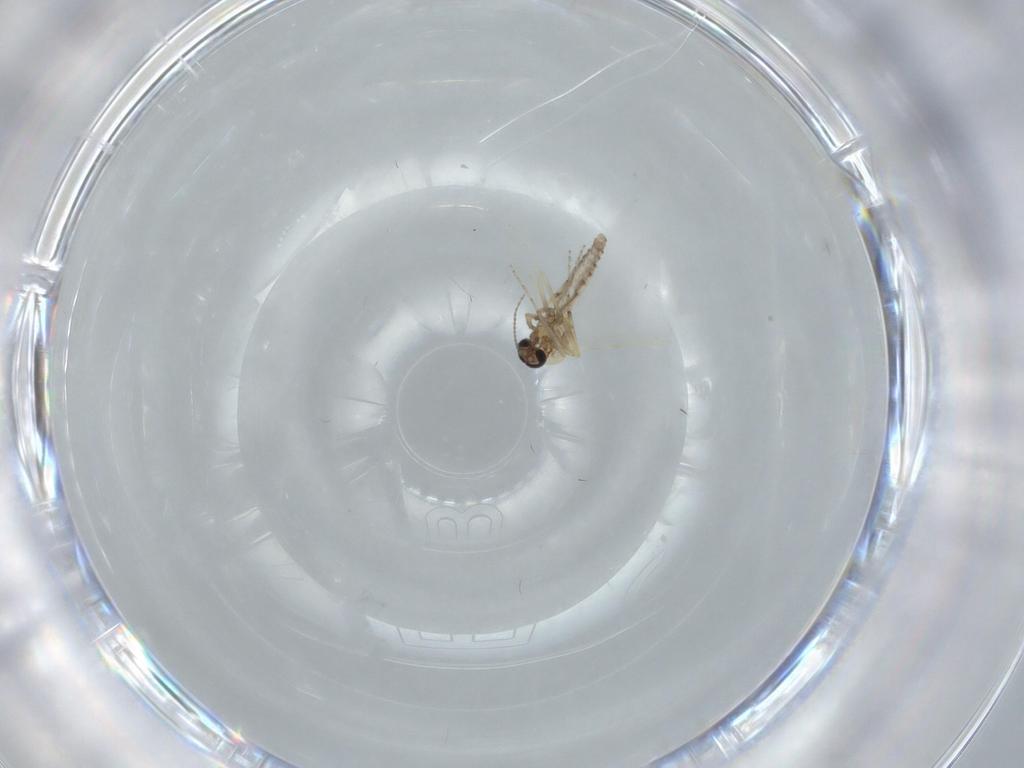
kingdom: Animalia
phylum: Arthropoda
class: Insecta
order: Diptera
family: Ceratopogonidae
